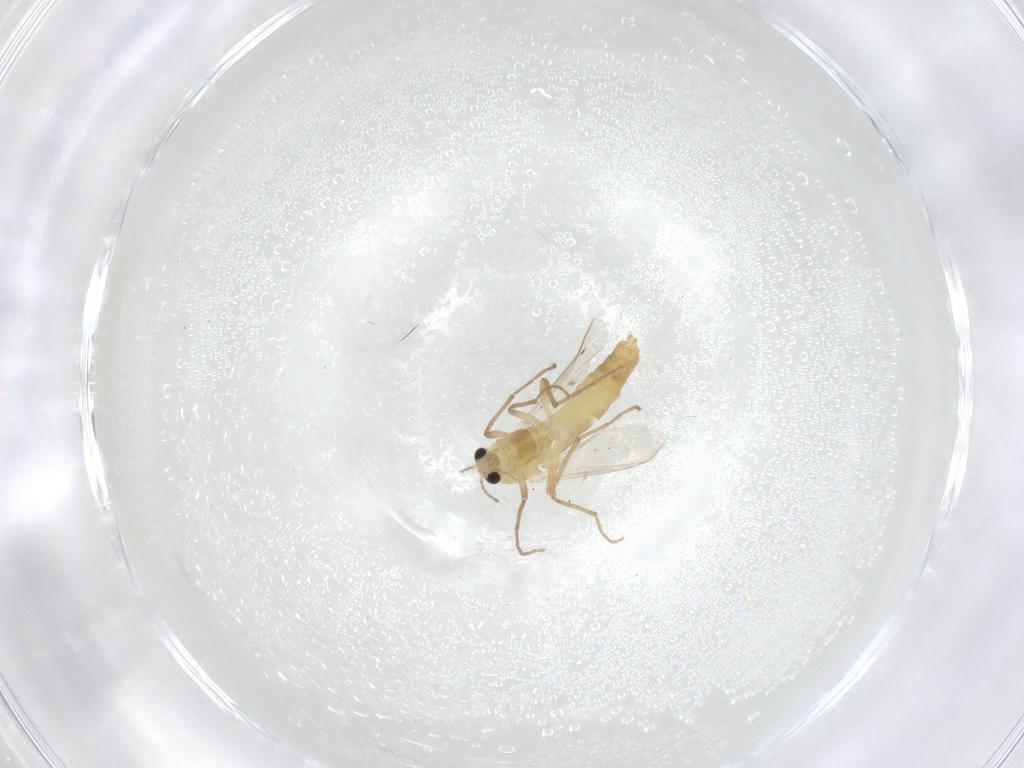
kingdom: Animalia
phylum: Arthropoda
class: Insecta
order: Diptera
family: Chironomidae
